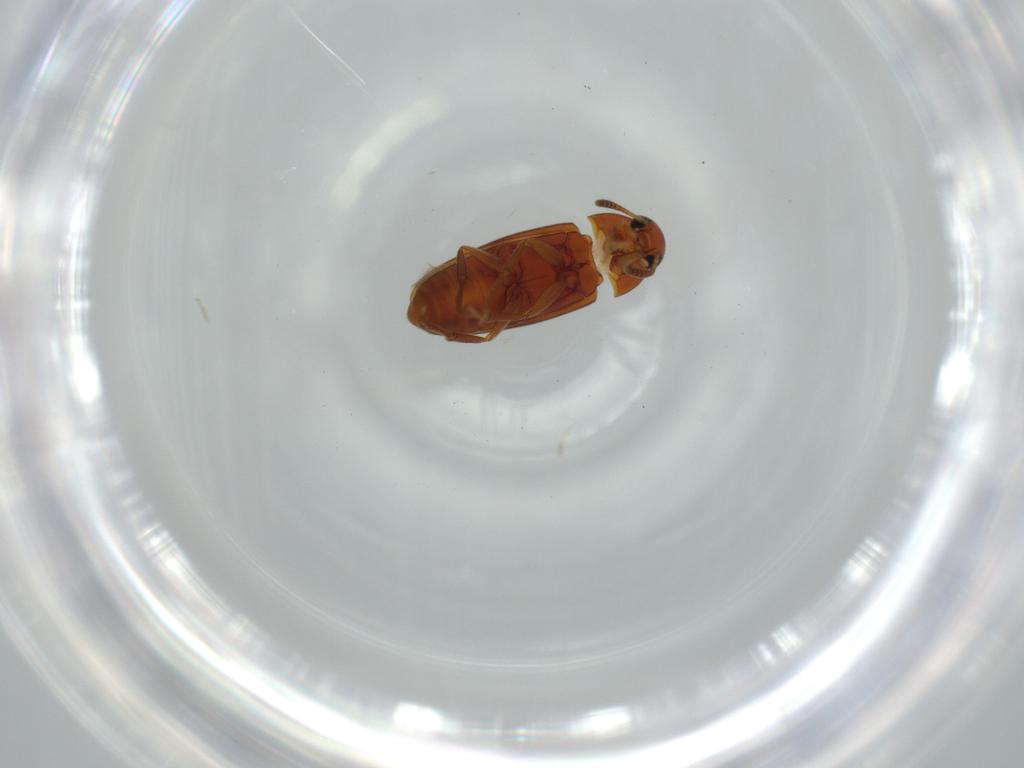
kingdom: Animalia
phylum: Arthropoda
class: Insecta
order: Coleoptera
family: Scraptiidae
